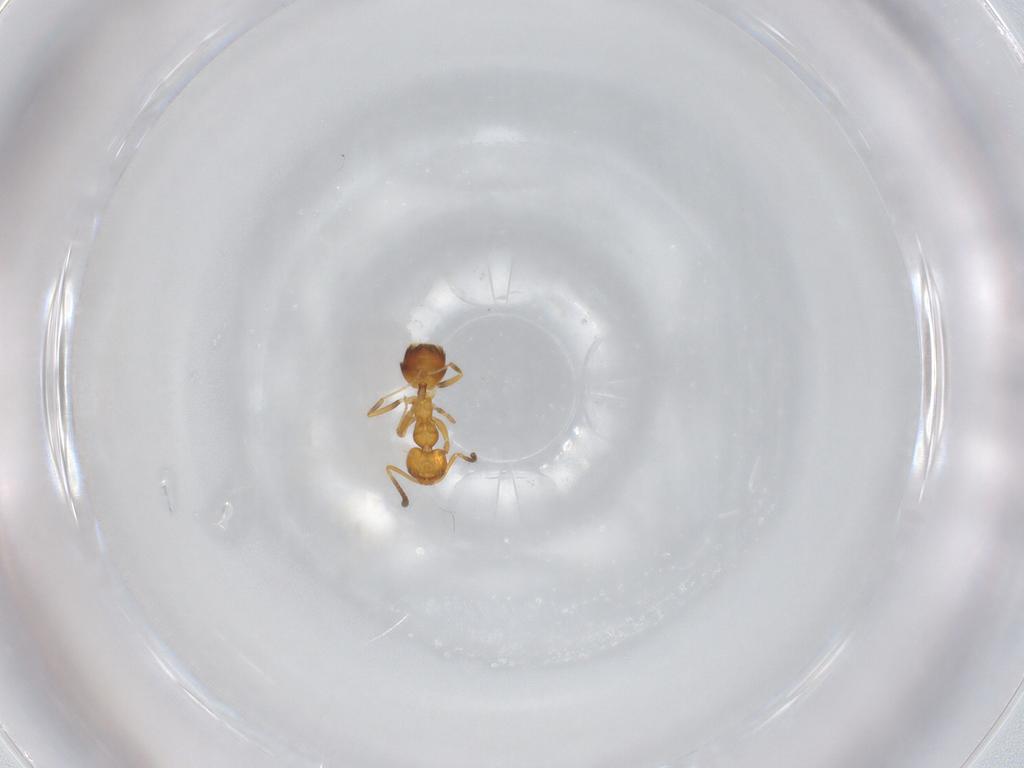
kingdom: Animalia
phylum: Arthropoda
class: Insecta
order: Hymenoptera
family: Formicidae
